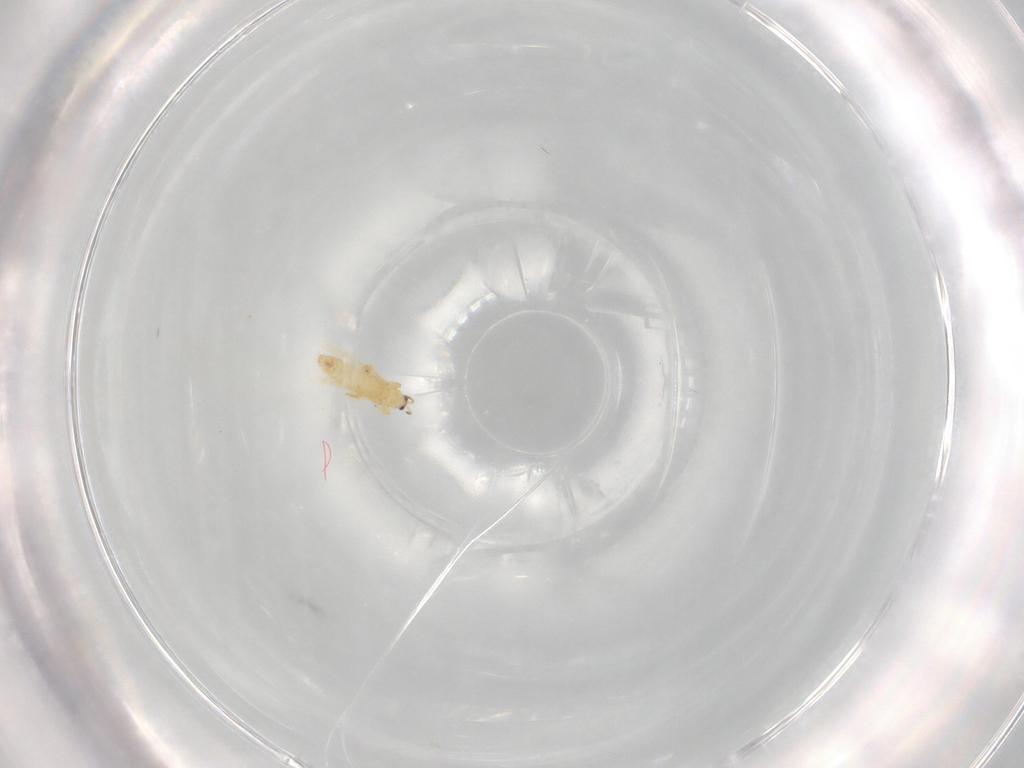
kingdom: Animalia
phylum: Arthropoda
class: Insecta
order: Thysanoptera
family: Thripidae
